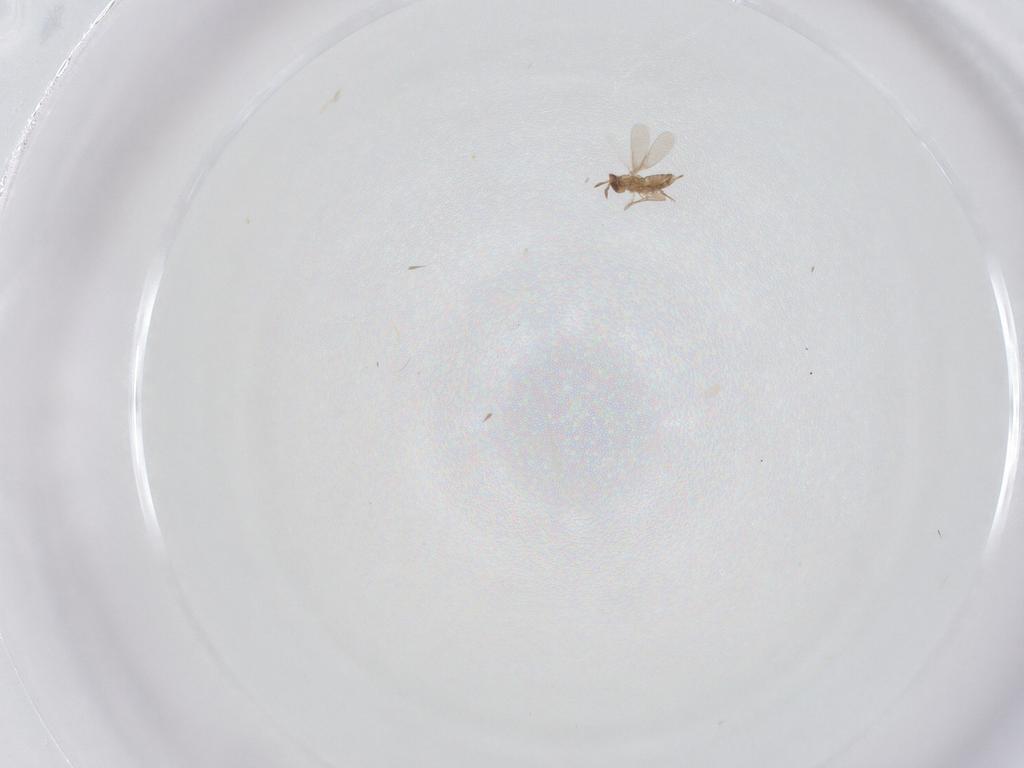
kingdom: Animalia
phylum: Arthropoda
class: Insecta
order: Hymenoptera
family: Aphelinidae
